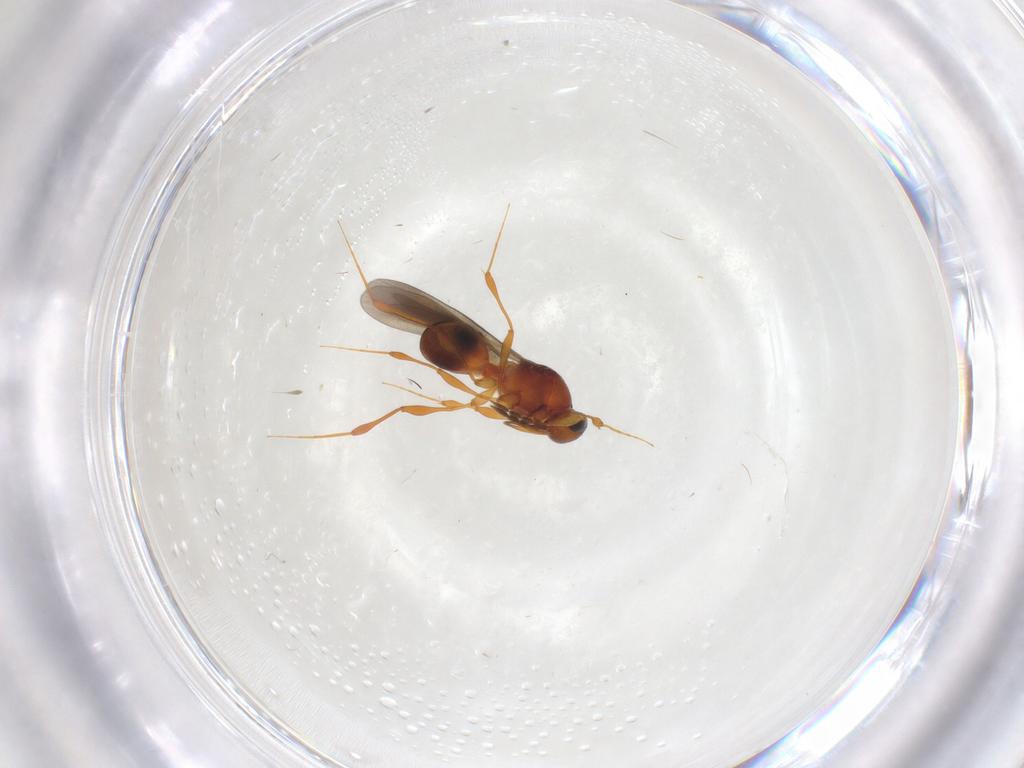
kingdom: Animalia
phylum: Arthropoda
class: Insecta
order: Hymenoptera
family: Platygastridae
